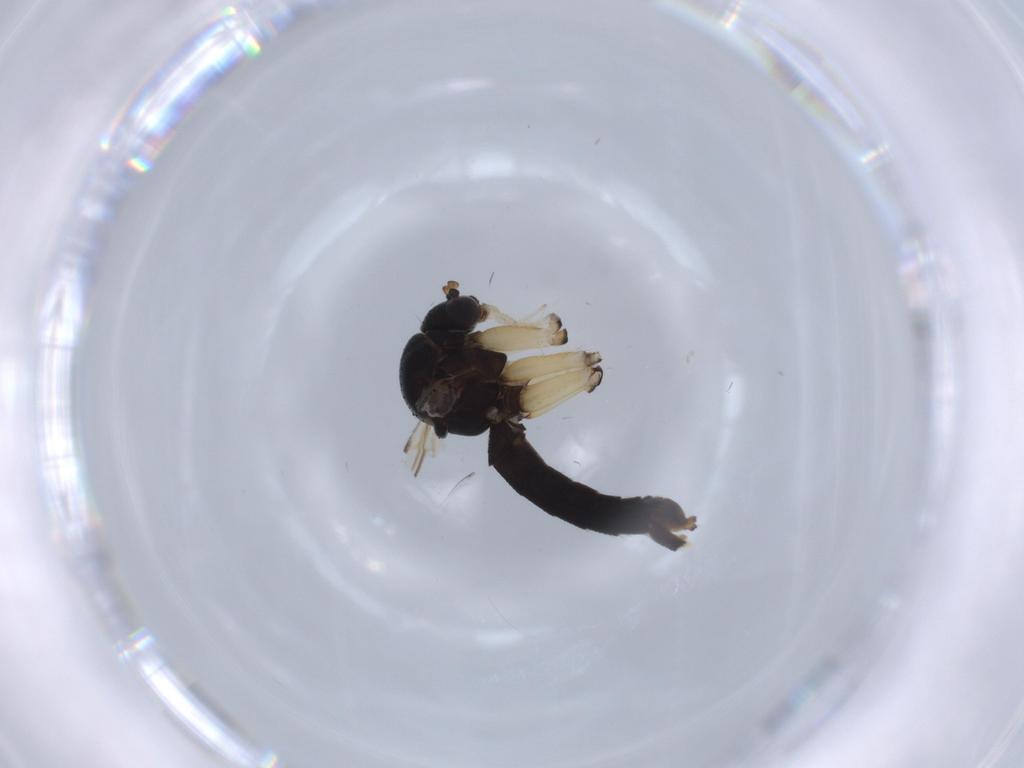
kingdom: Animalia
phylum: Arthropoda
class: Insecta
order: Diptera
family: Mycetophilidae
